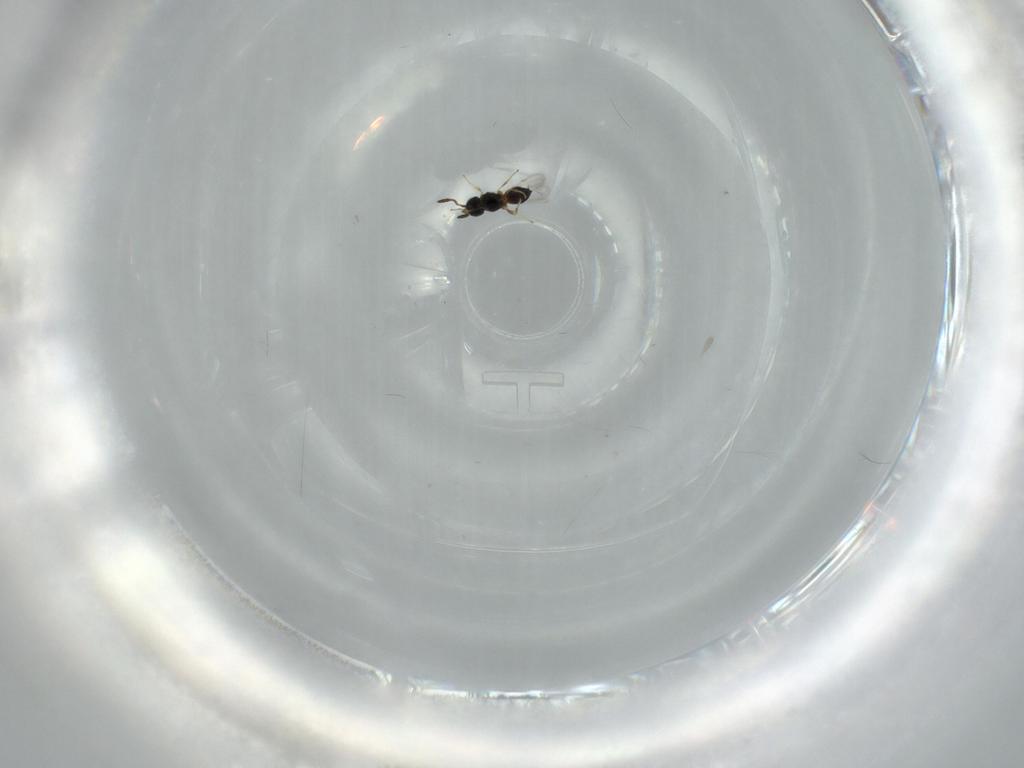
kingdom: Animalia
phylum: Arthropoda
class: Insecta
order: Hymenoptera
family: Scelionidae
